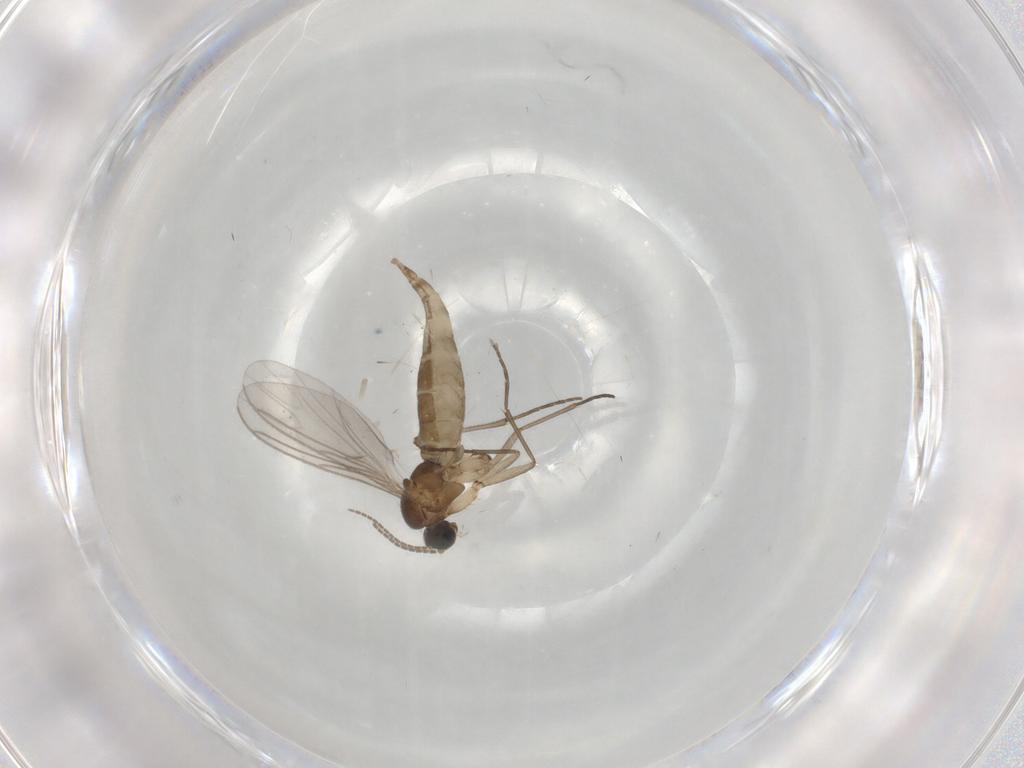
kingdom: Animalia
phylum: Arthropoda
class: Insecta
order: Diptera
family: Sciaridae
